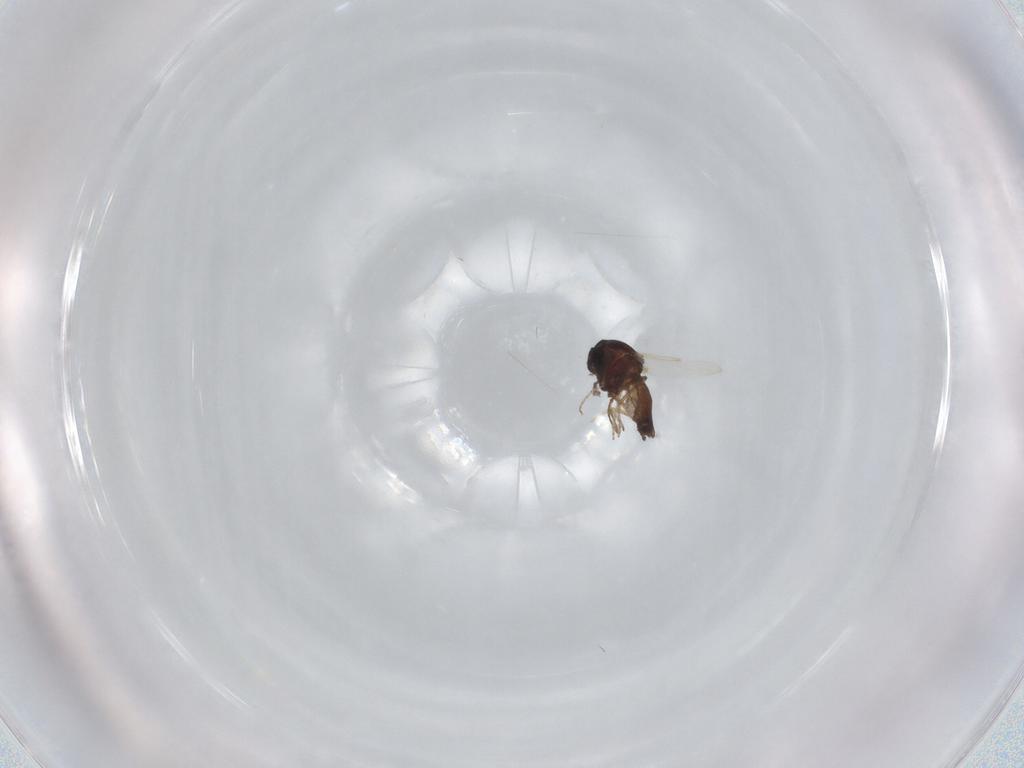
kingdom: Animalia
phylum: Arthropoda
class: Insecta
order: Diptera
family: Ceratopogonidae
